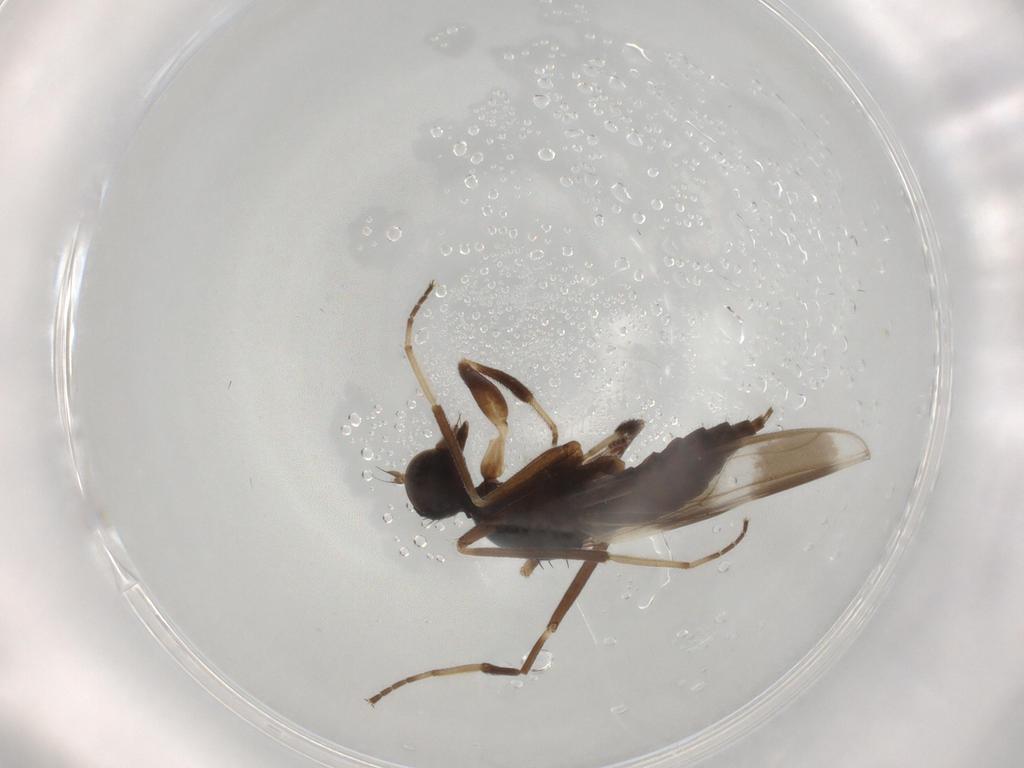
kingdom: Animalia
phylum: Arthropoda
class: Insecta
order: Diptera
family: Hybotidae
